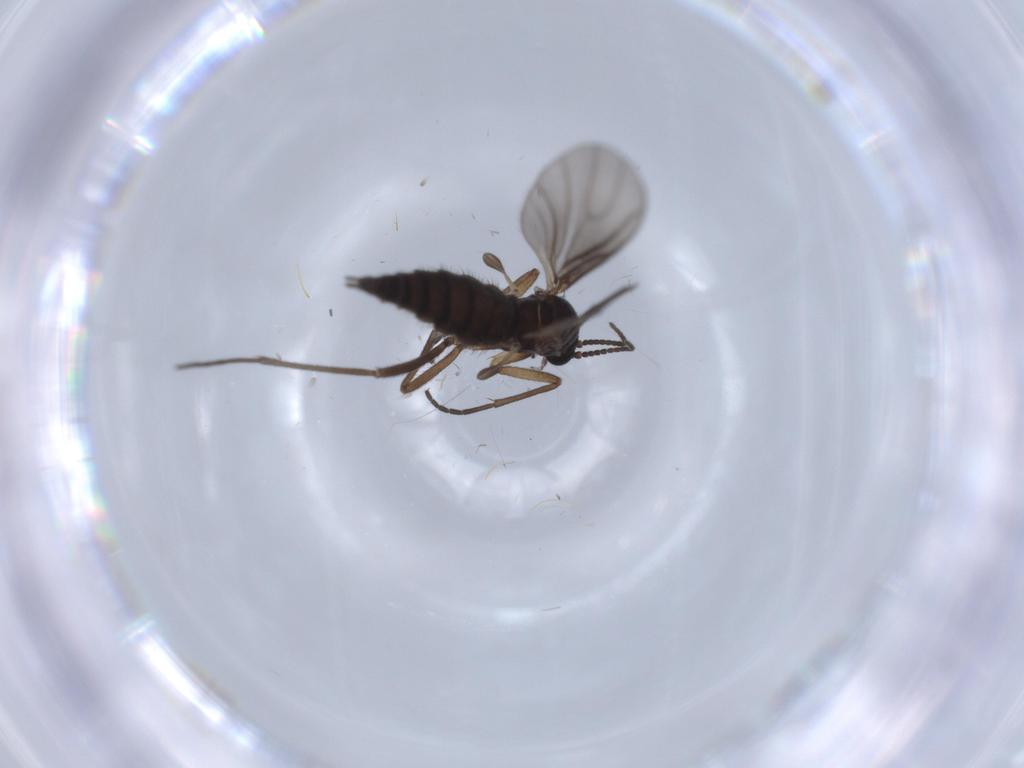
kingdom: Animalia
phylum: Arthropoda
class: Insecta
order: Diptera
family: Sciaridae
